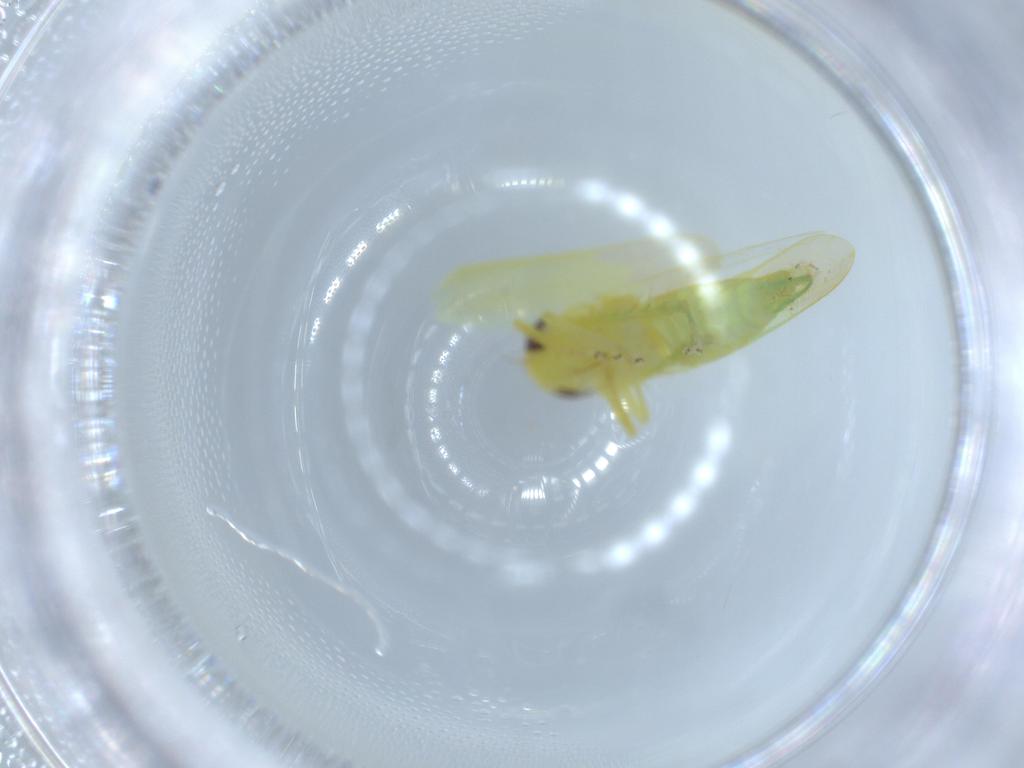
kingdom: Animalia
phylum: Arthropoda
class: Insecta
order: Hemiptera
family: Cicadellidae
